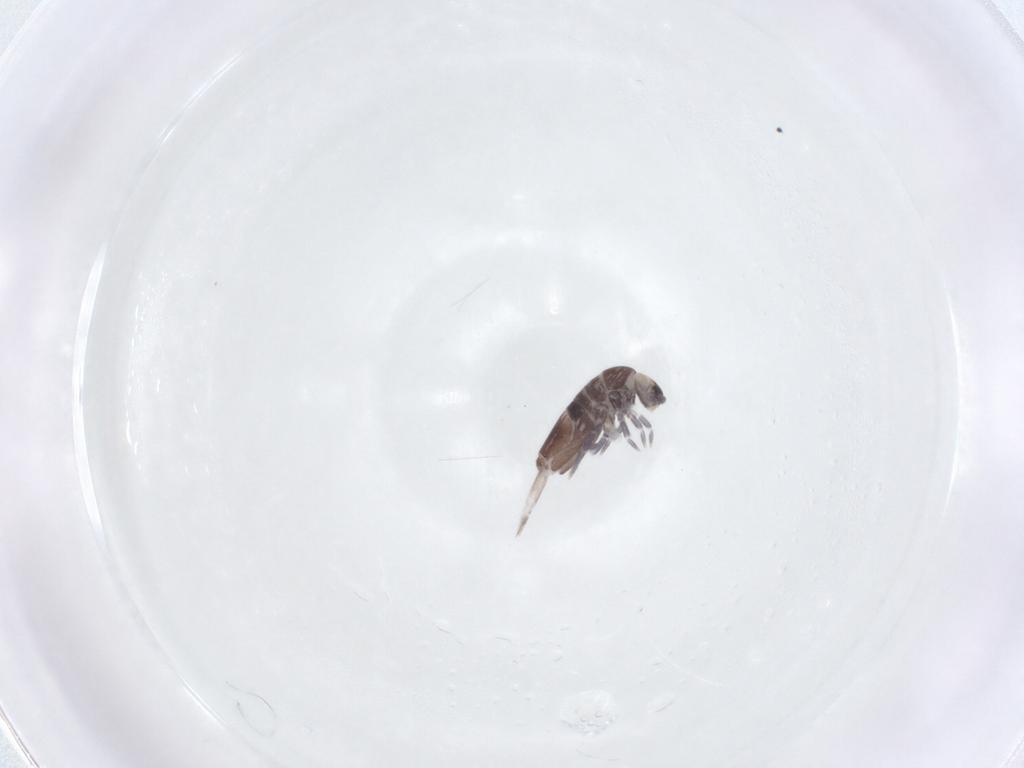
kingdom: Animalia
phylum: Arthropoda
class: Collembola
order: Entomobryomorpha
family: Entomobryidae
